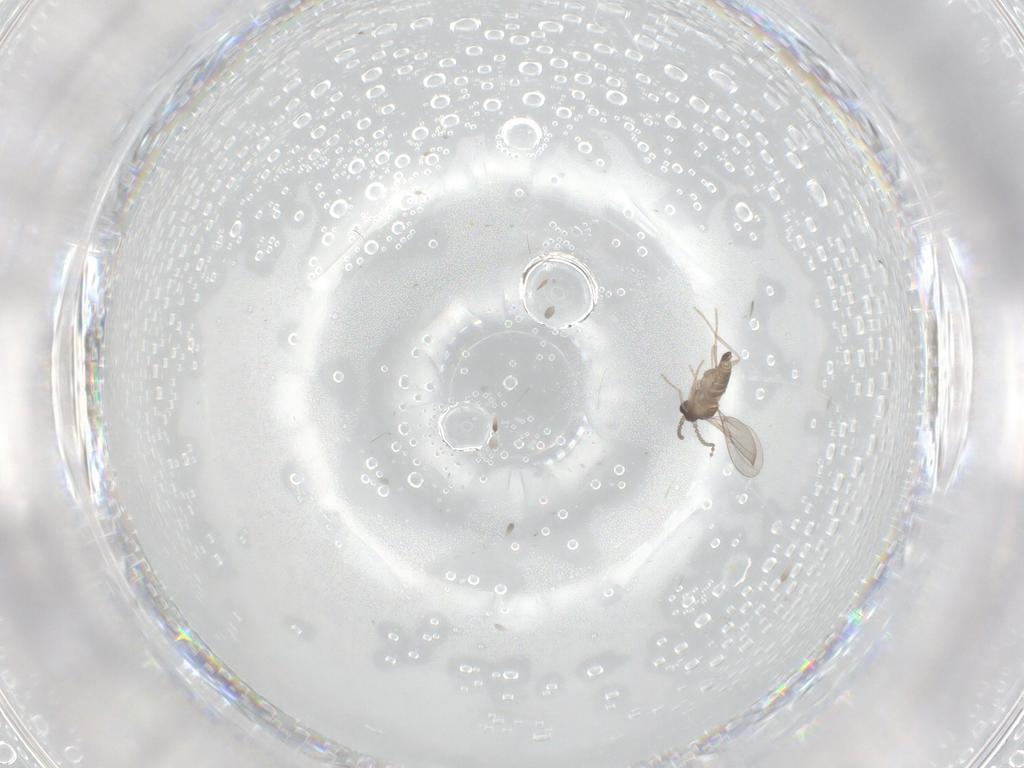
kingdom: Animalia
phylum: Arthropoda
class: Insecta
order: Diptera
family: Cecidomyiidae
